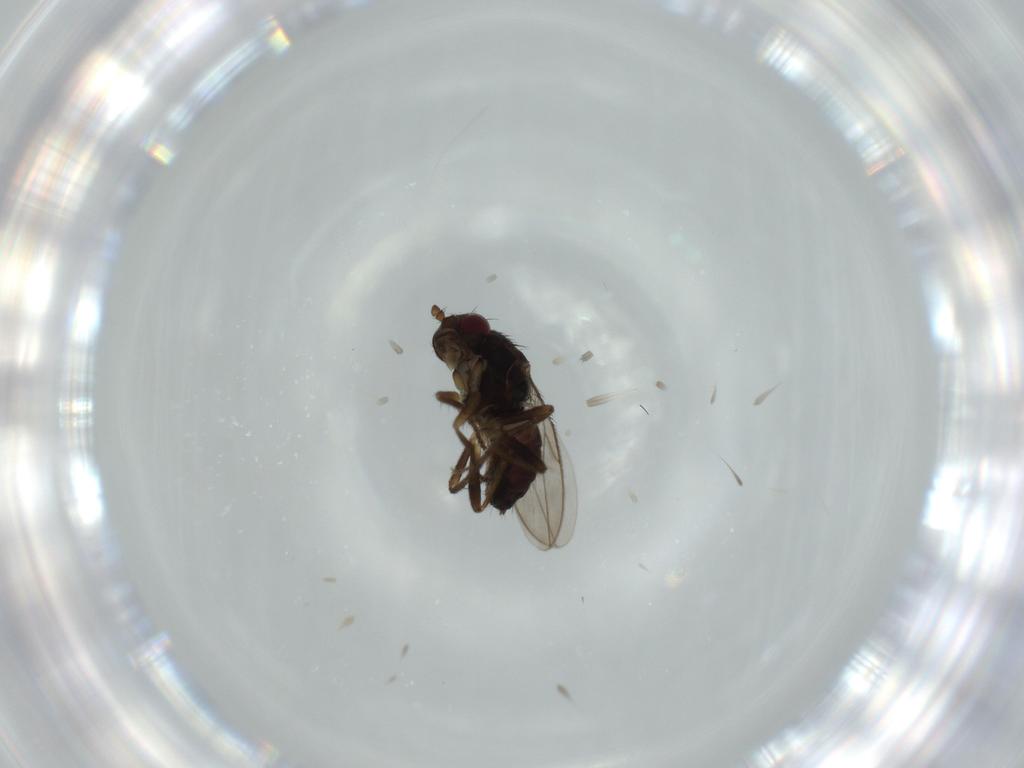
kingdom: Animalia
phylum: Arthropoda
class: Insecta
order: Diptera
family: Sphaeroceridae
